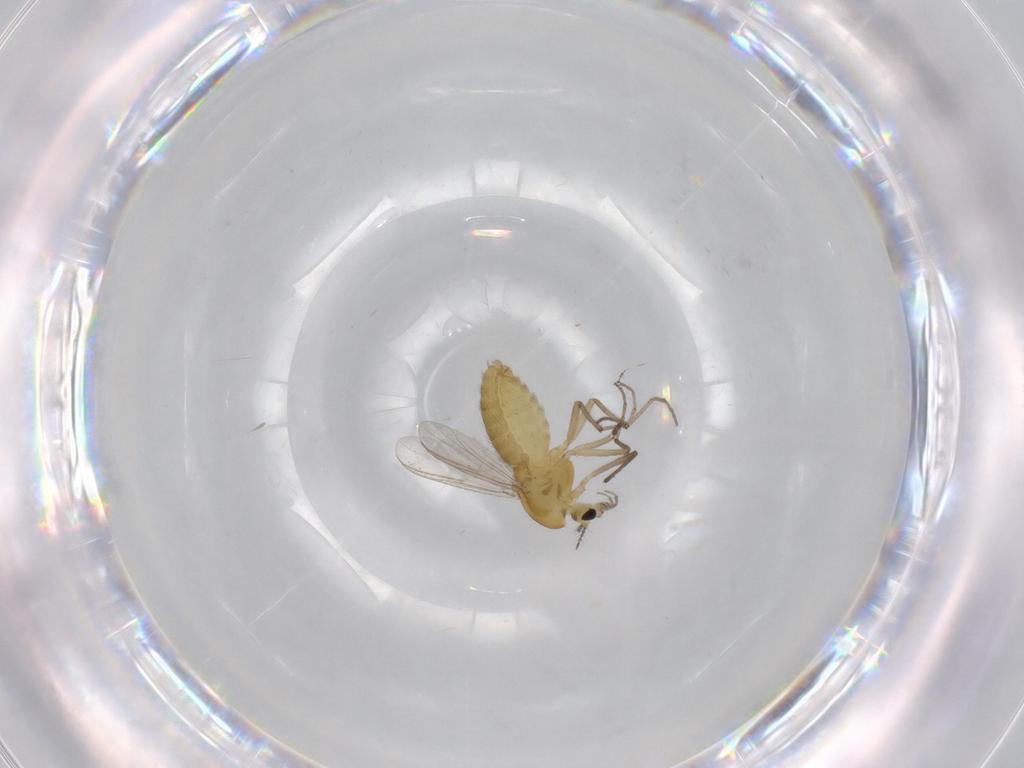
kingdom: Animalia
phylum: Arthropoda
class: Insecta
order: Diptera
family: Chironomidae
